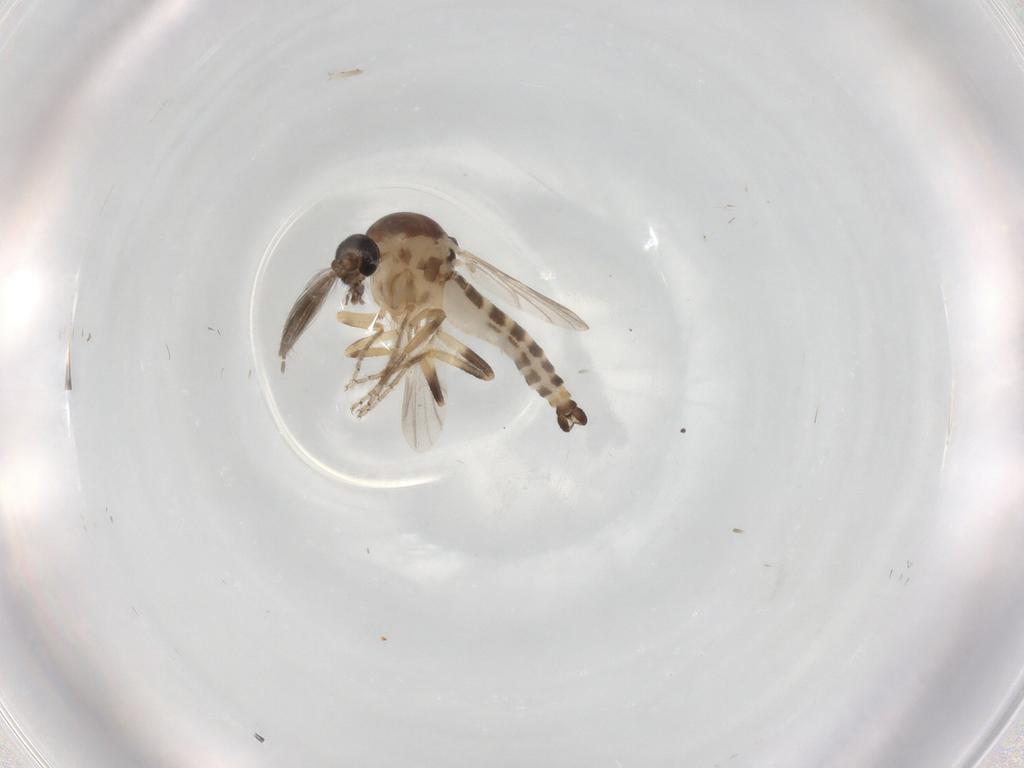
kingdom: Animalia
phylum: Arthropoda
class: Insecta
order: Diptera
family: Ceratopogonidae
